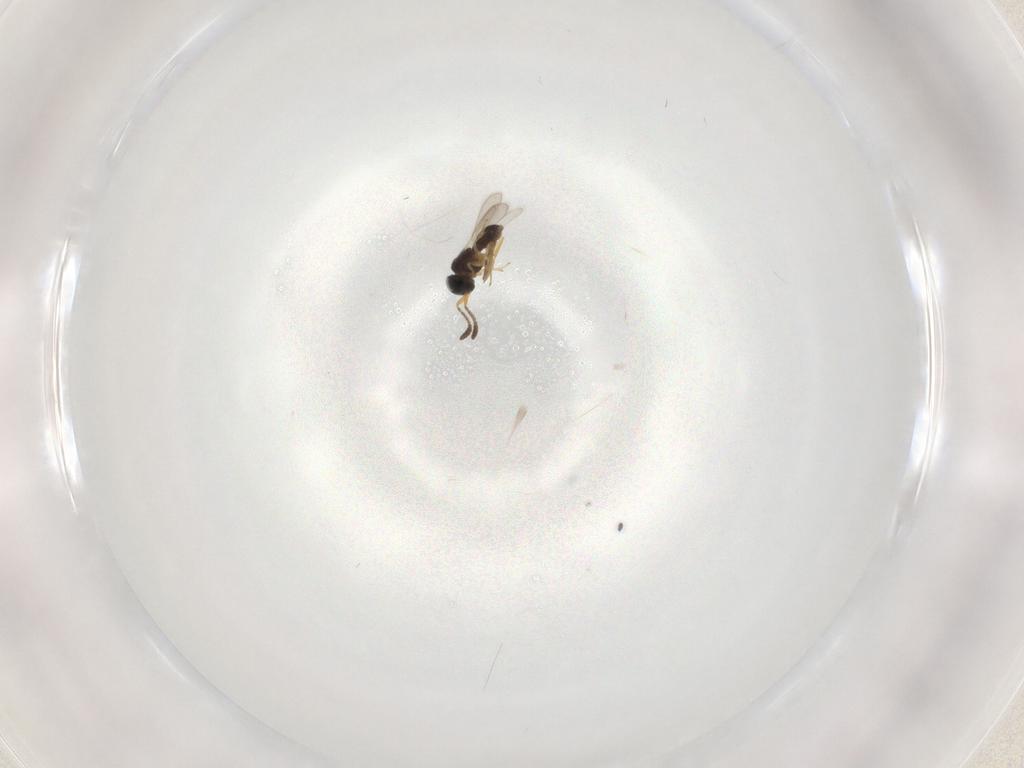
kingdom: Animalia
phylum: Arthropoda
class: Insecta
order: Hymenoptera
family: Scelionidae
